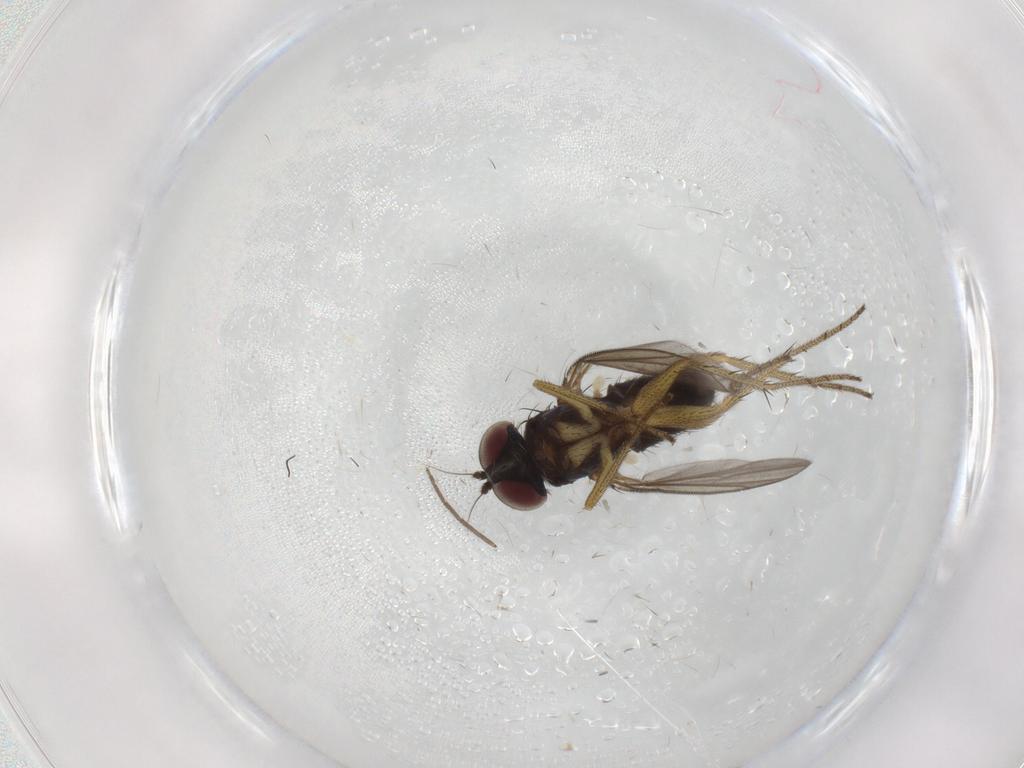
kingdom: Animalia
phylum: Arthropoda
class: Insecta
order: Diptera
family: Dolichopodidae
